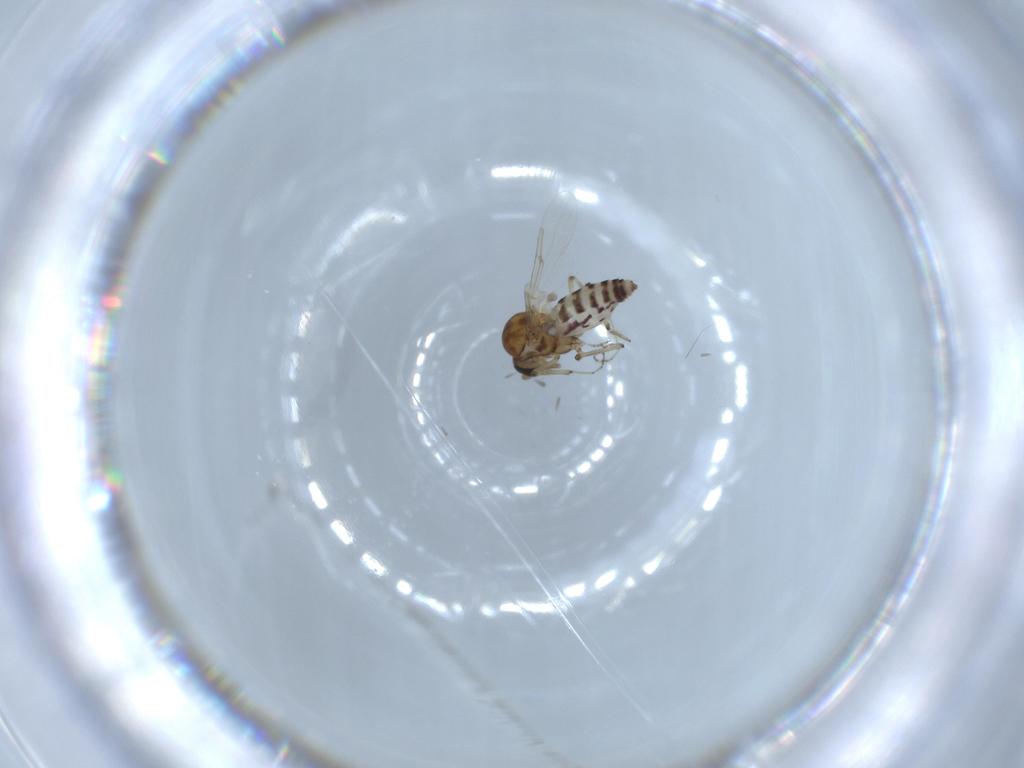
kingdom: Animalia
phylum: Arthropoda
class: Insecta
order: Diptera
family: Ceratopogonidae
